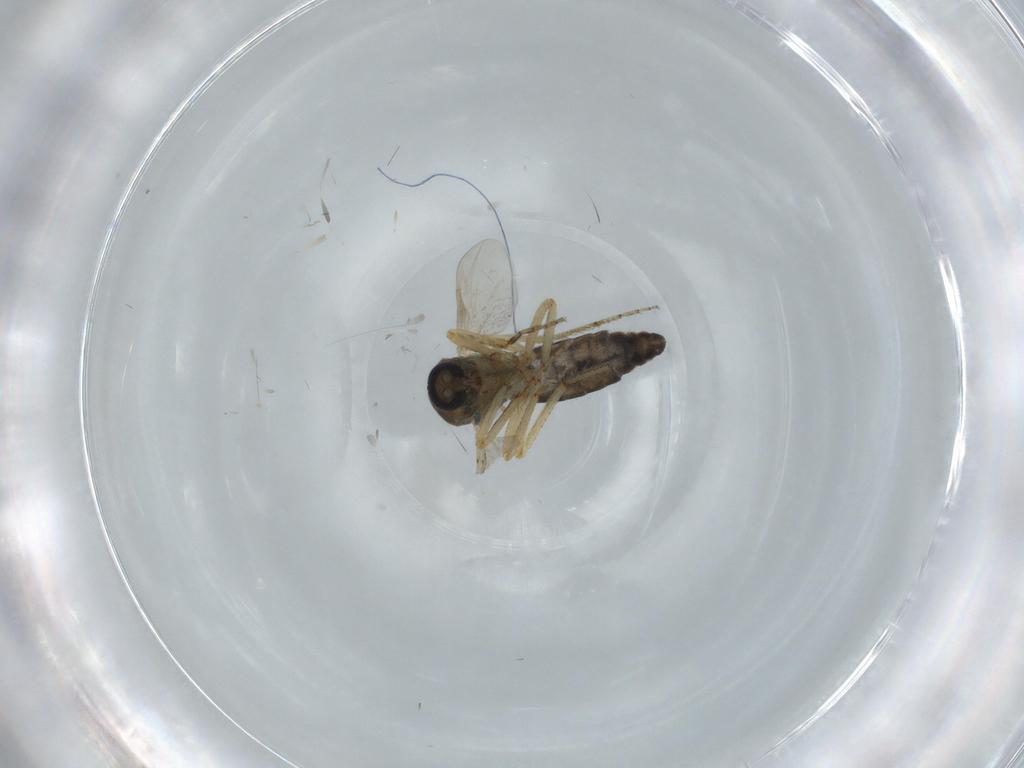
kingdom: Animalia
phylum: Arthropoda
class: Insecta
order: Diptera
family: Ceratopogonidae
